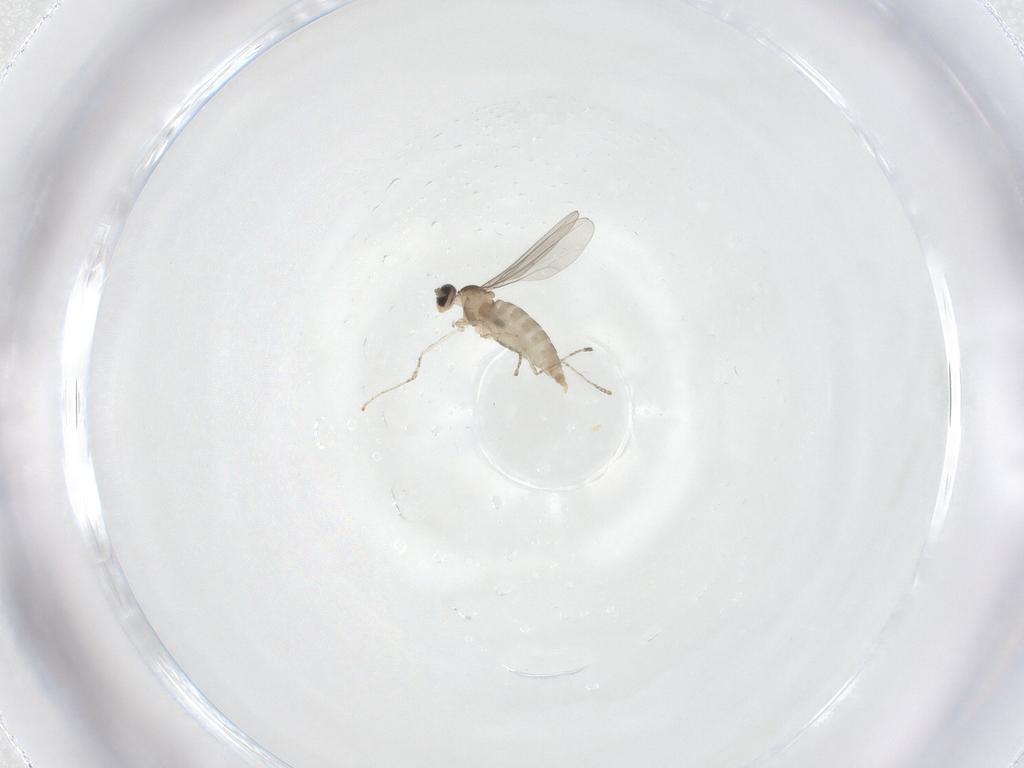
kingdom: Animalia
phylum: Arthropoda
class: Insecta
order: Diptera
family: Cecidomyiidae
